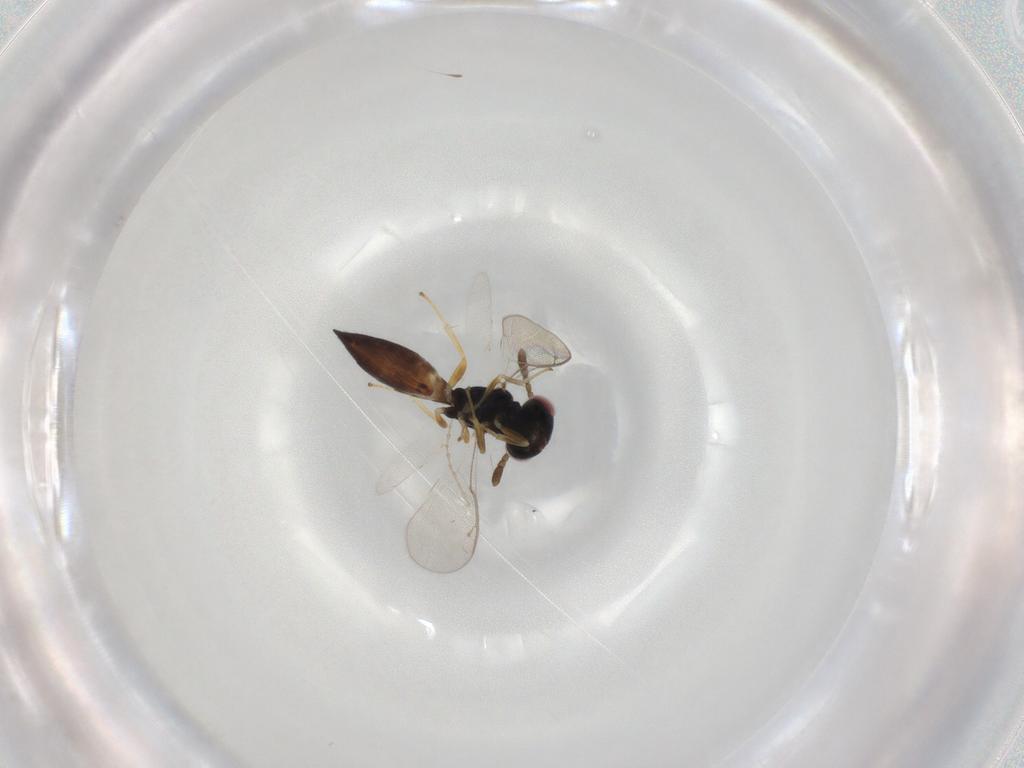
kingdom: Animalia
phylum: Arthropoda
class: Insecta
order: Hymenoptera
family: Pteromalidae
